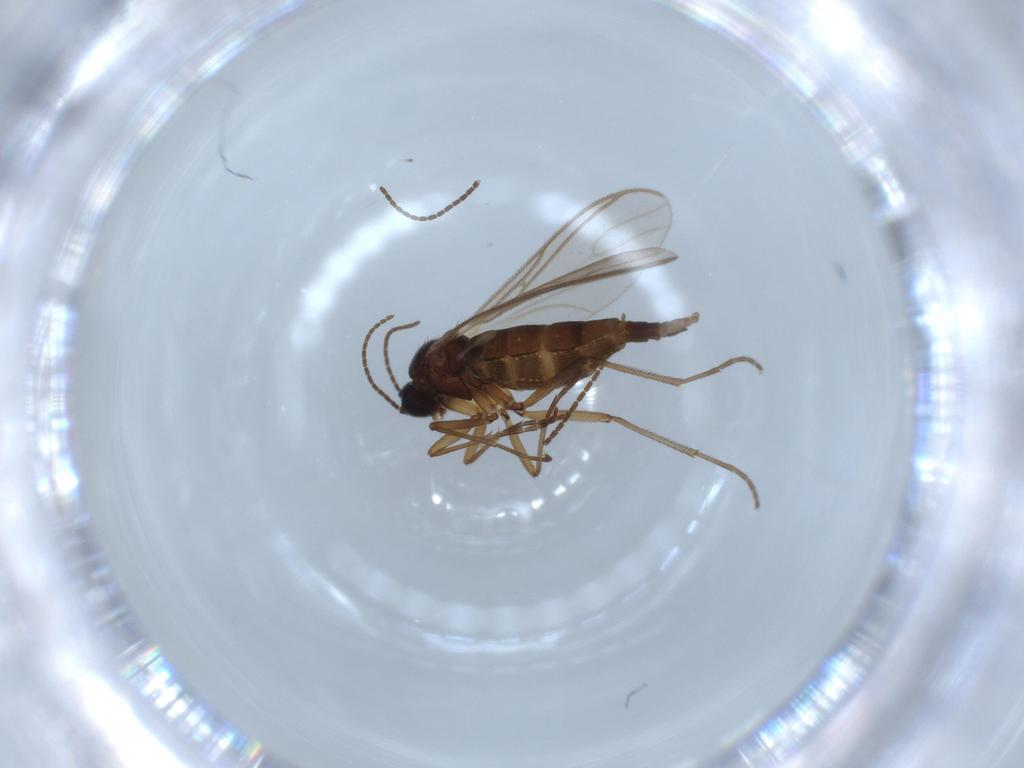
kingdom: Animalia
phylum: Arthropoda
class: Insecta
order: Diptera
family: Sciaridae
